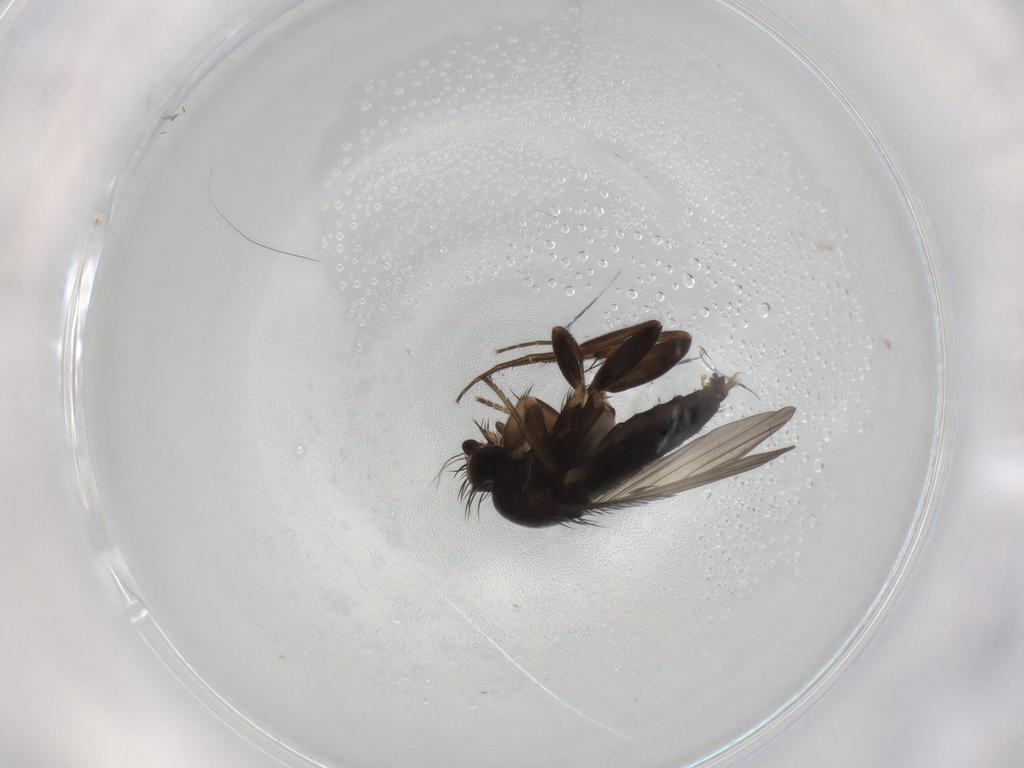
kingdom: Animalia
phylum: Arthropoda
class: Insecta
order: Diptera
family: Phoridae
